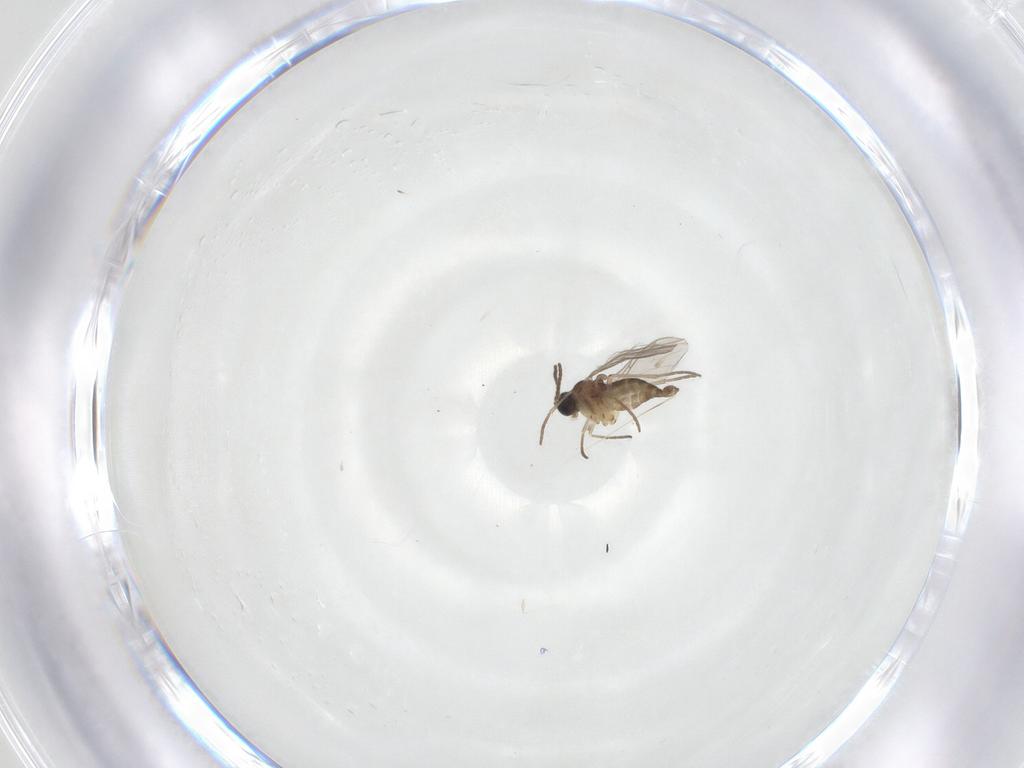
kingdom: Animalia
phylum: Arthropoda
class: Insecta
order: Diptera
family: Sciaridae
